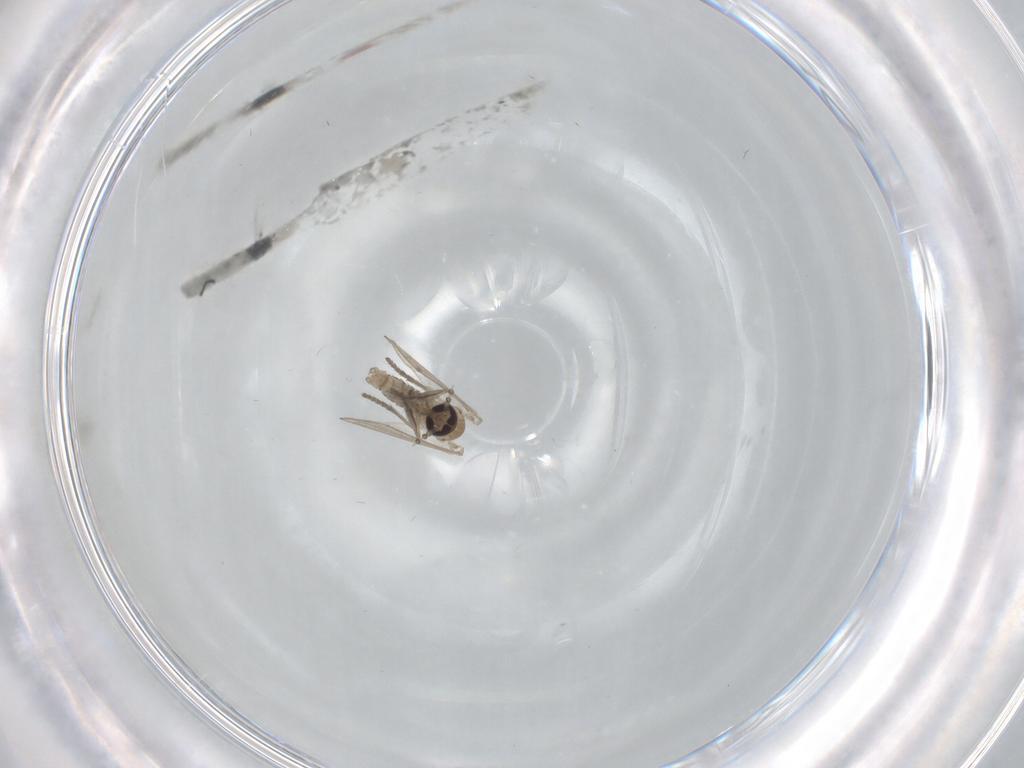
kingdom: Animalia
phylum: Arthropoda
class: Insecta
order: Diptera
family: Psychodidae
